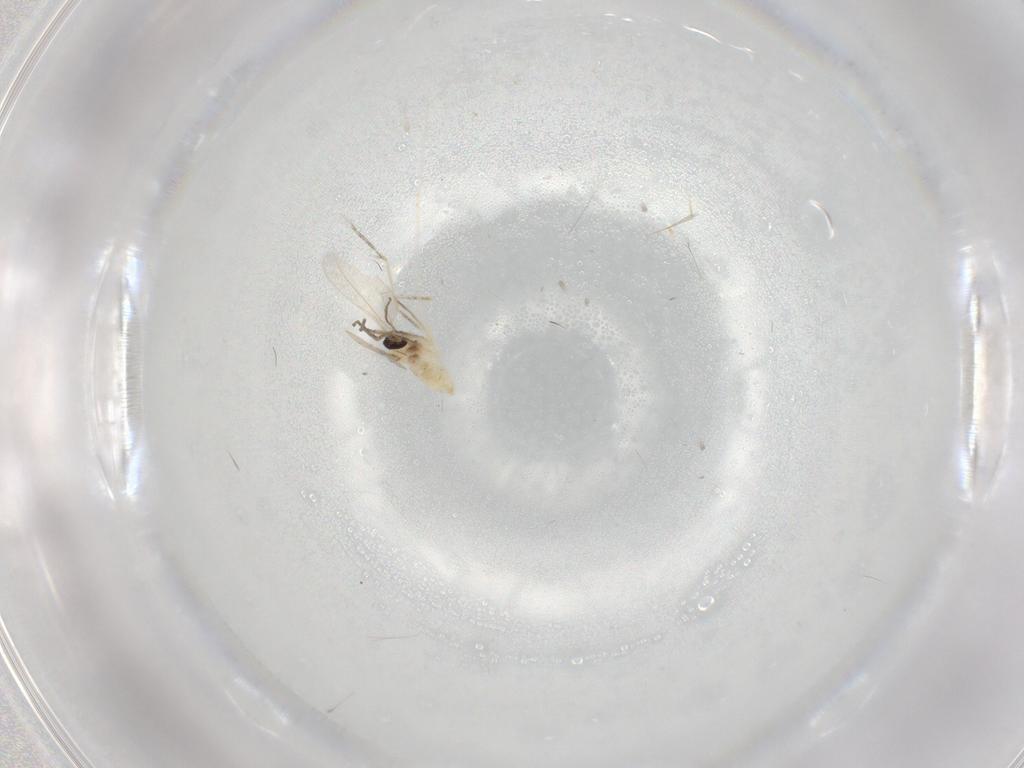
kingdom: Animalia
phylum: Arthropoda
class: Insecta
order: Diptera
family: Cecidomyiidae
